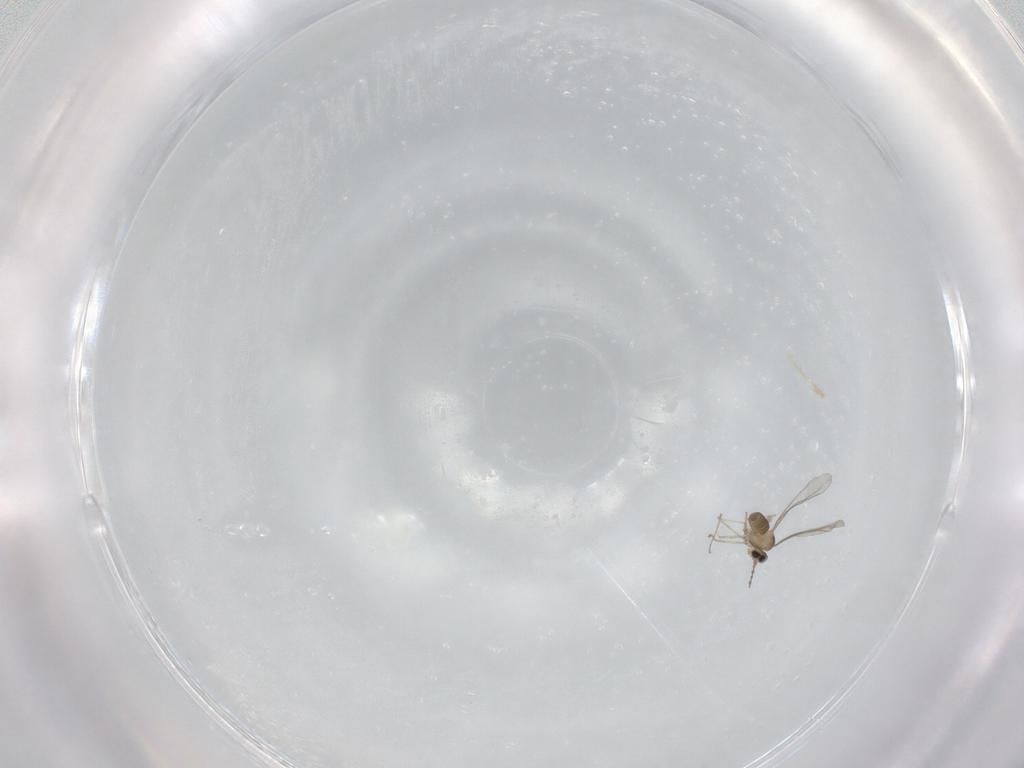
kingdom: Animalia
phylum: Arthropoda
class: Insecta
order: Diptera
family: Cecidomyiidae
